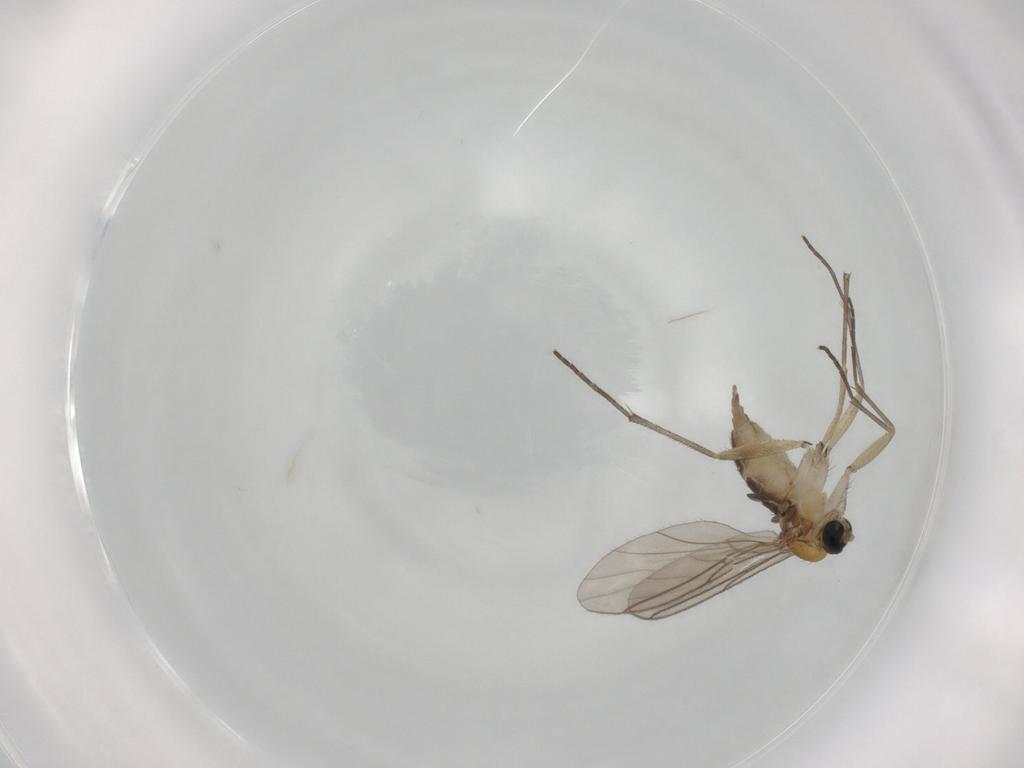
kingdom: Animalia
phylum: Arthropoda
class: Insecta
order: Diptera
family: Sciaridae
